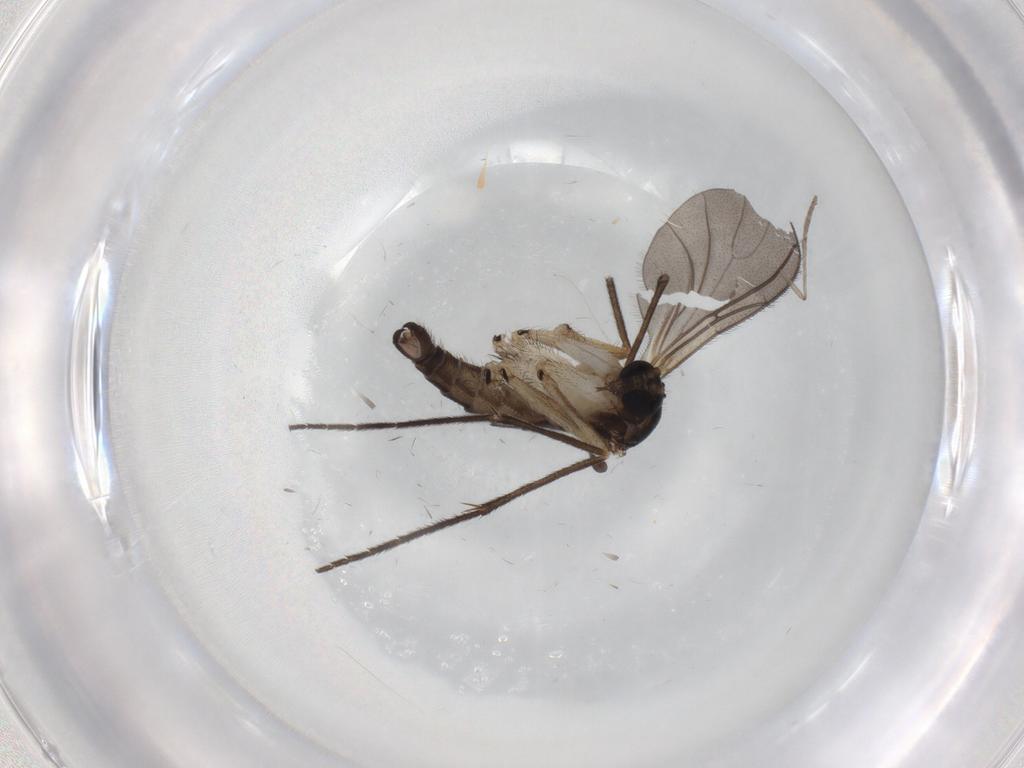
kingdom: Animalia
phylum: Arthropoda
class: Insecta
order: Diptera
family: Sciaridae
